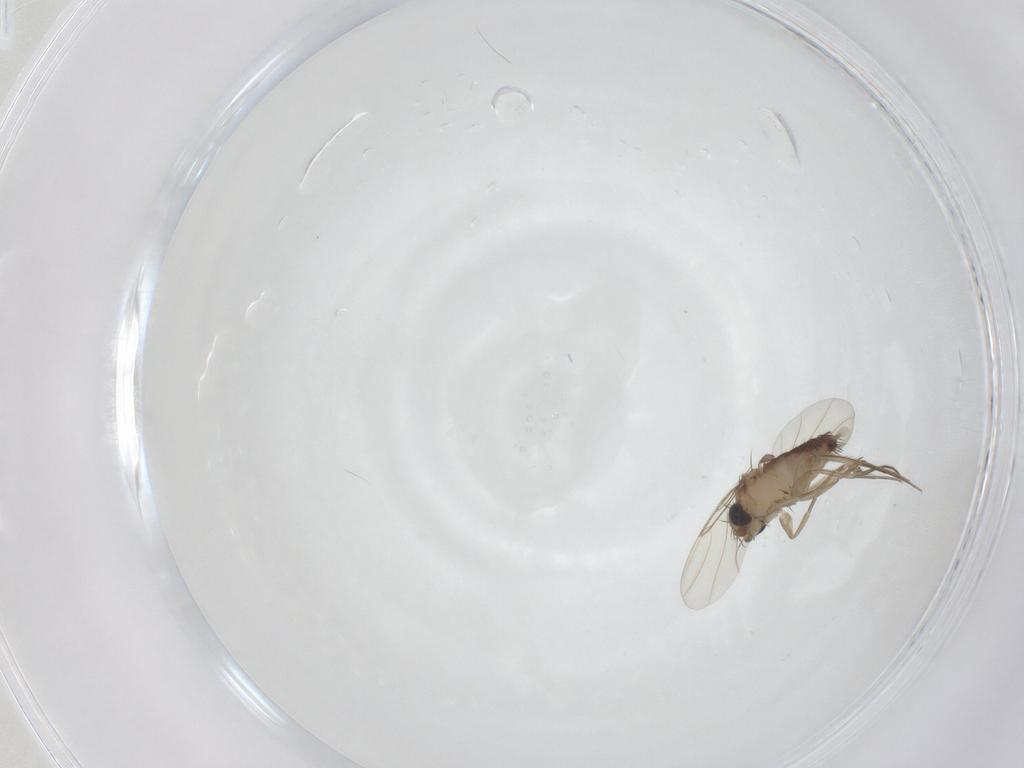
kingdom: Animalia
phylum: Arthropoda
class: Insecta
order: Diptera
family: Phoridae
